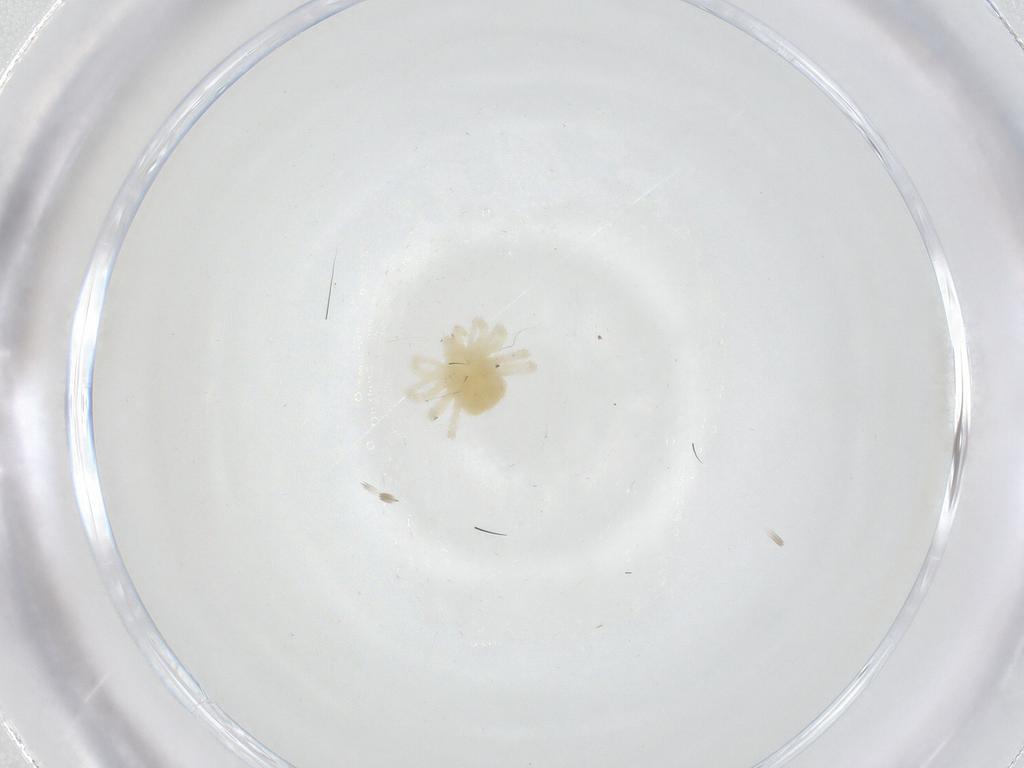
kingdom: Animalia
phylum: Arthropoda
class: Arachnida
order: Trombidiformes
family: Anystidae
